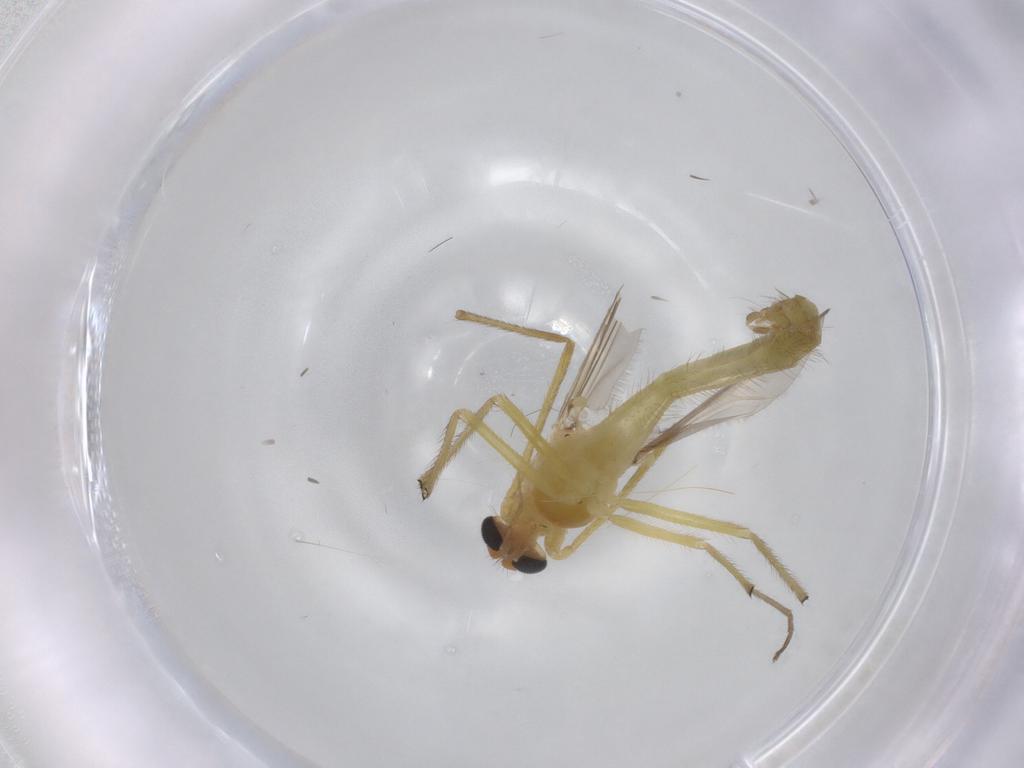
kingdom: Animalia
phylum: Arthropoda
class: Insecta
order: Diptera
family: Chironomidae
